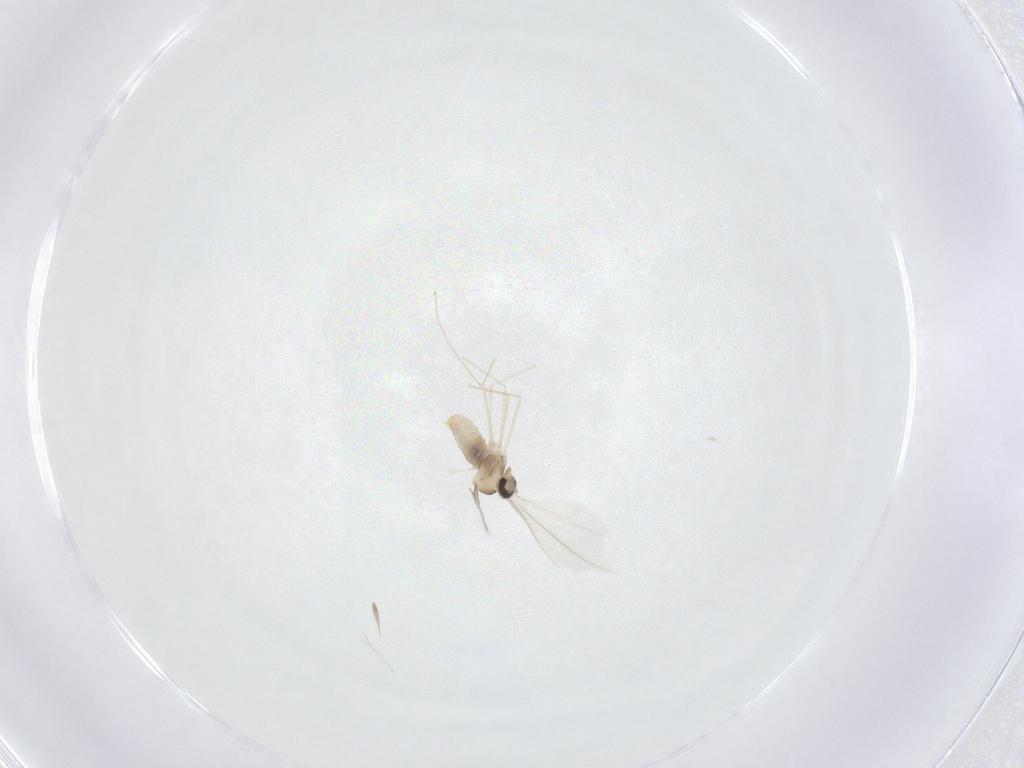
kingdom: Animalia
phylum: Arthropoda
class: Insecta
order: Diptera
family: Cecidomyiidae
